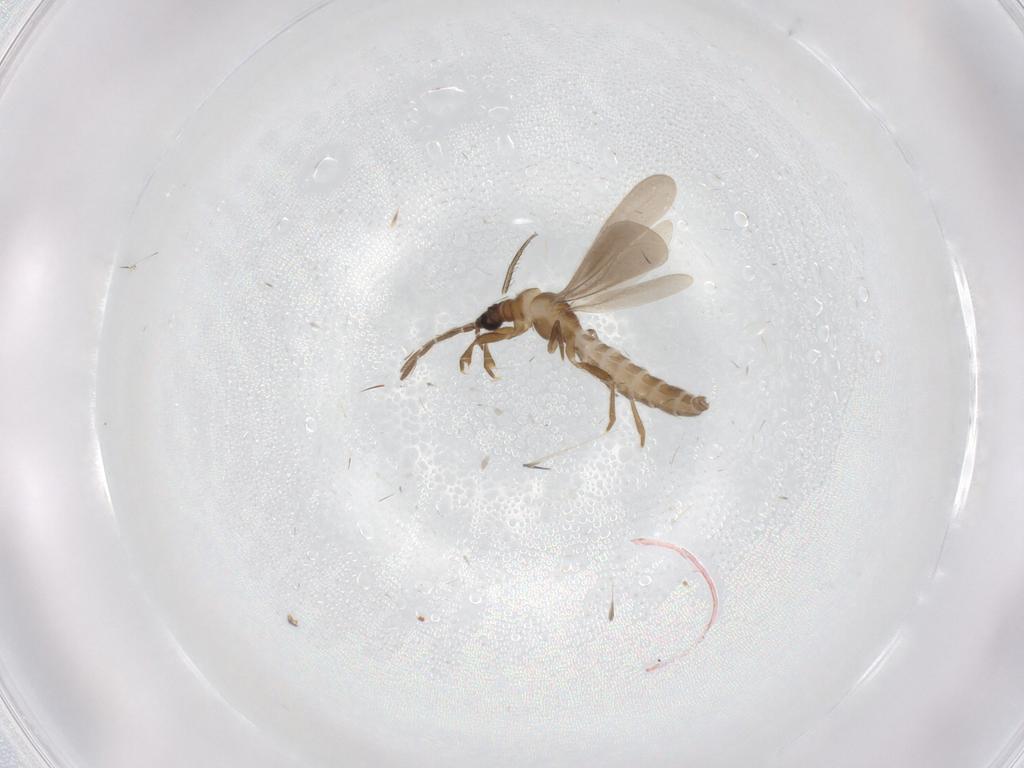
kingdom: Animalia
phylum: Arthropoda
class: Insecta
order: Hemiptera
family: Enicocephalidae
